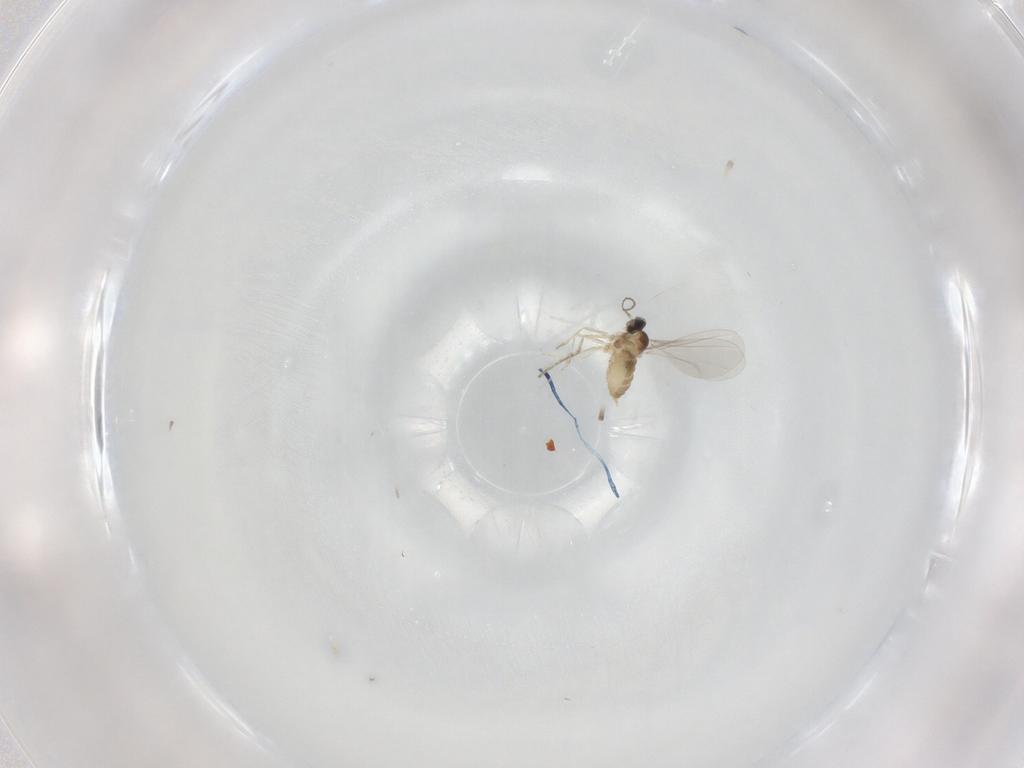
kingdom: Animalia
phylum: Arthropoda
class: Insecta
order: Diptera
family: Cecidomyiidae
